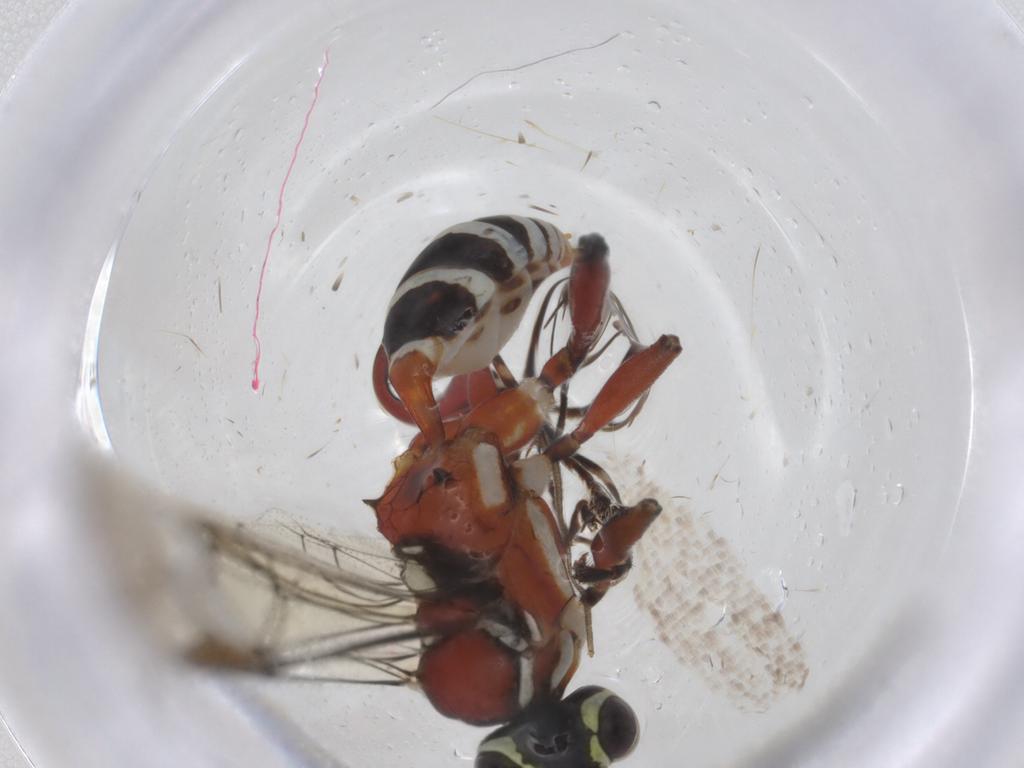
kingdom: Animalia
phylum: Arthropoda
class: Insecta
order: Hymenoptera
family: Ichneumonidae
